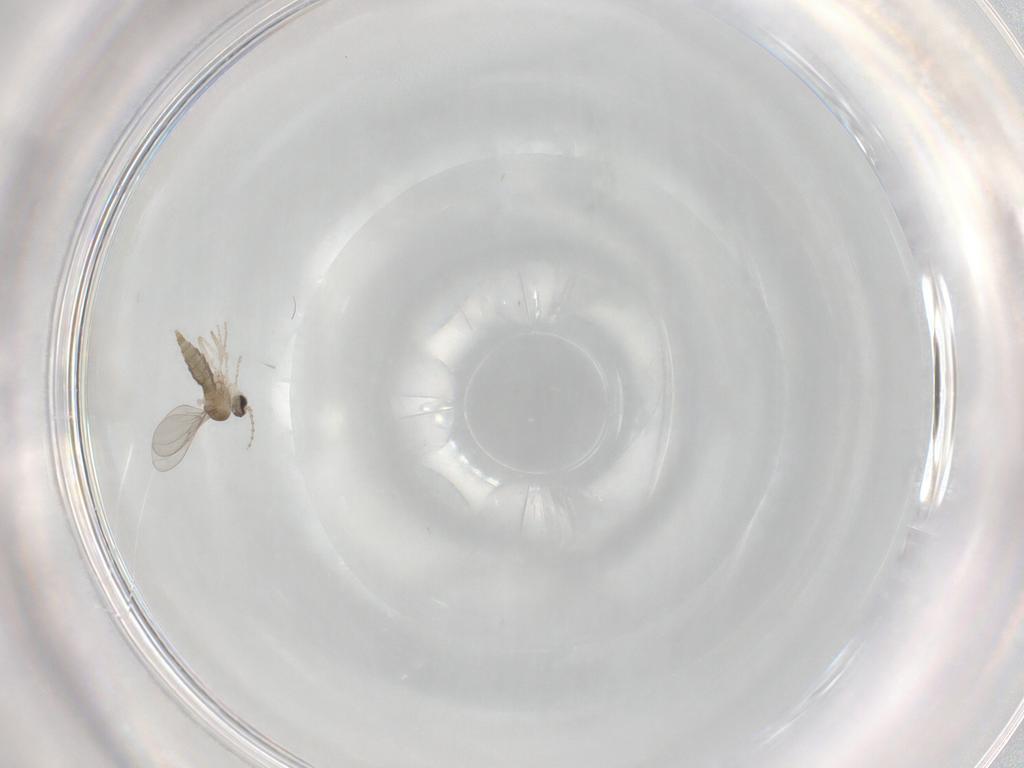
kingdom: Animalia
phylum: Arthropoda
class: Insecta
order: Diptera
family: Cecidomyiidae
